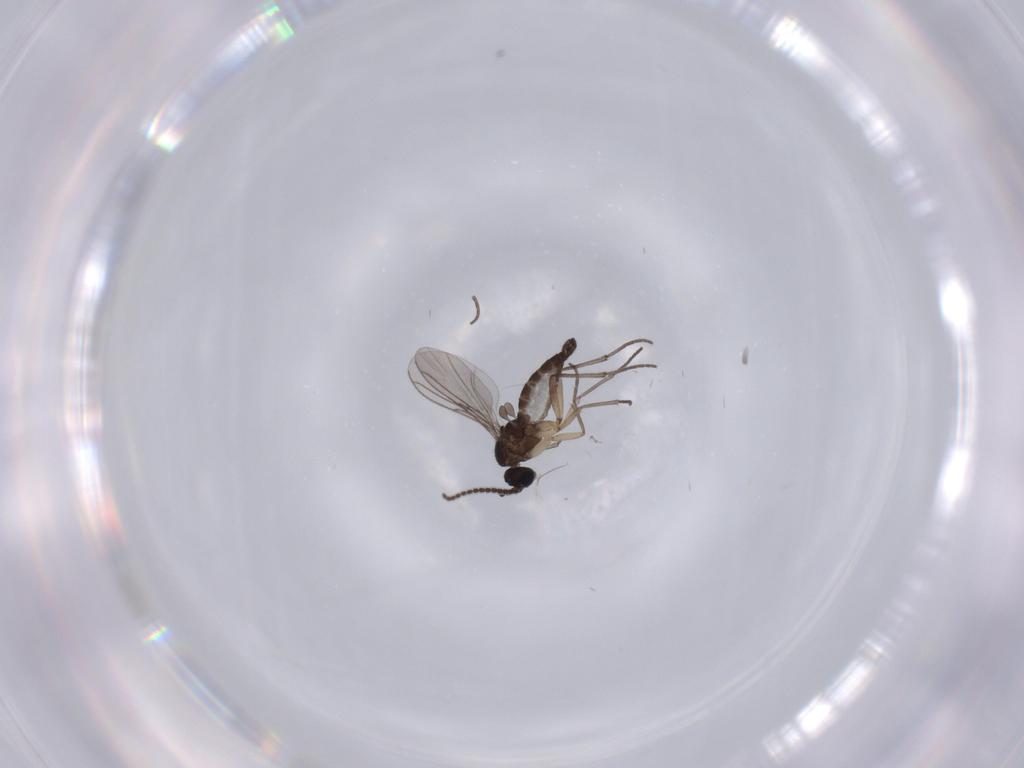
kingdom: Animalia
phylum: Arthropoda
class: Insecta
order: Diptera
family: Sciaridae
